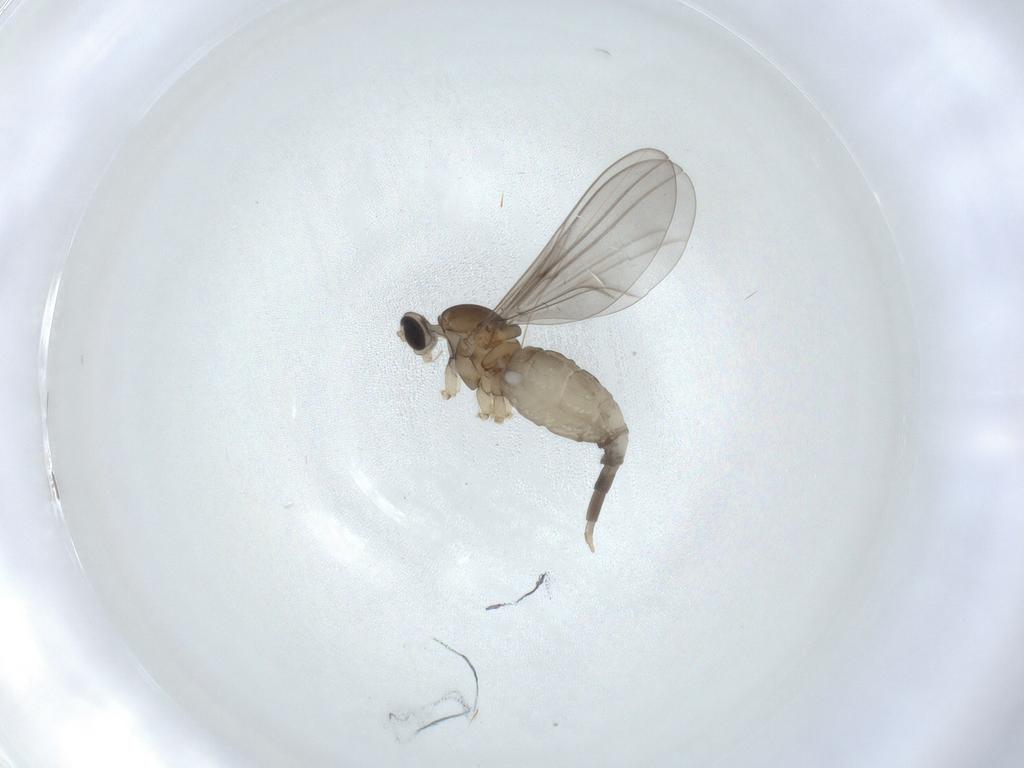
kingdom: Animalia
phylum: Arthropoda
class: Insecta
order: Diptera
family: Cecidomyiidae
